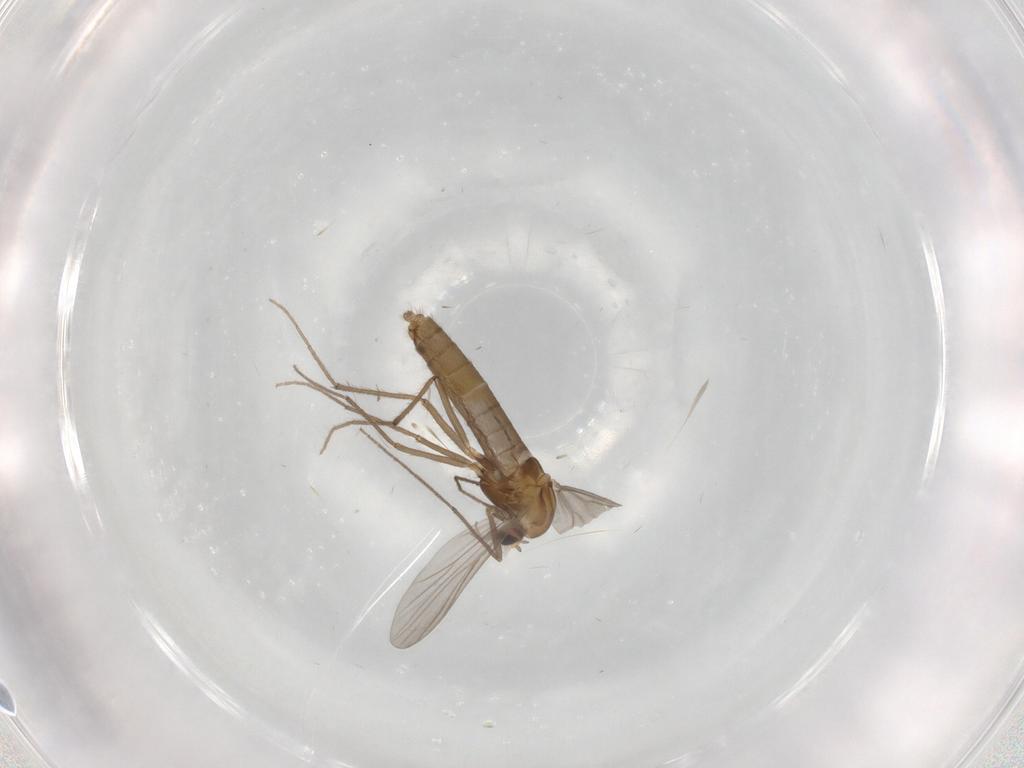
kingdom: Animalia
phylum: Arthropoda
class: Insecta
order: Diptera
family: Chironomidae
